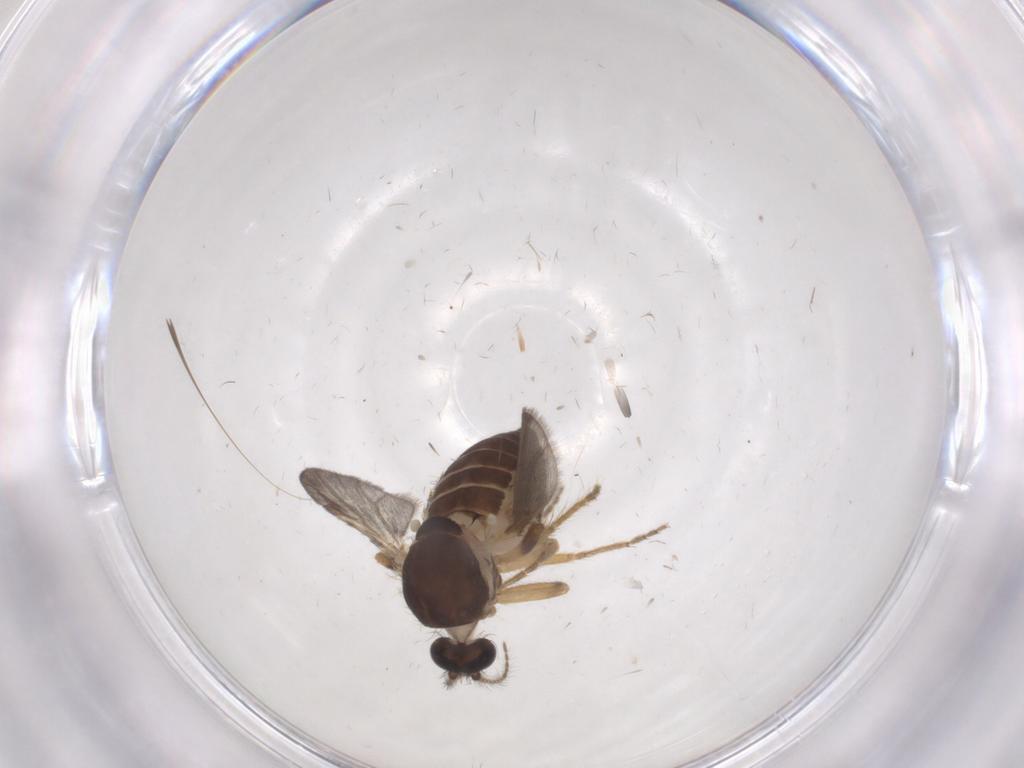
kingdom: Animalia
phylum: Arthropoda
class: Insecta
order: Diptera
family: Ceratopogonidae
